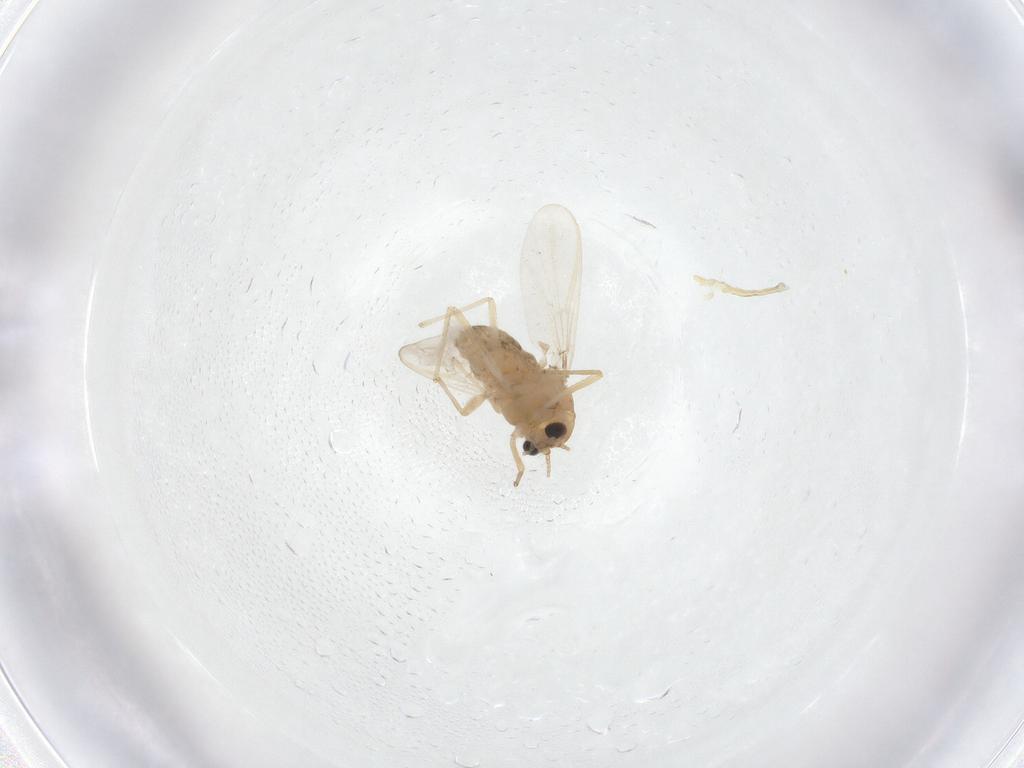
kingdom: Animalia
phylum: Arthropoda
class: Insecta
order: Diptera
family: Chironomidae
